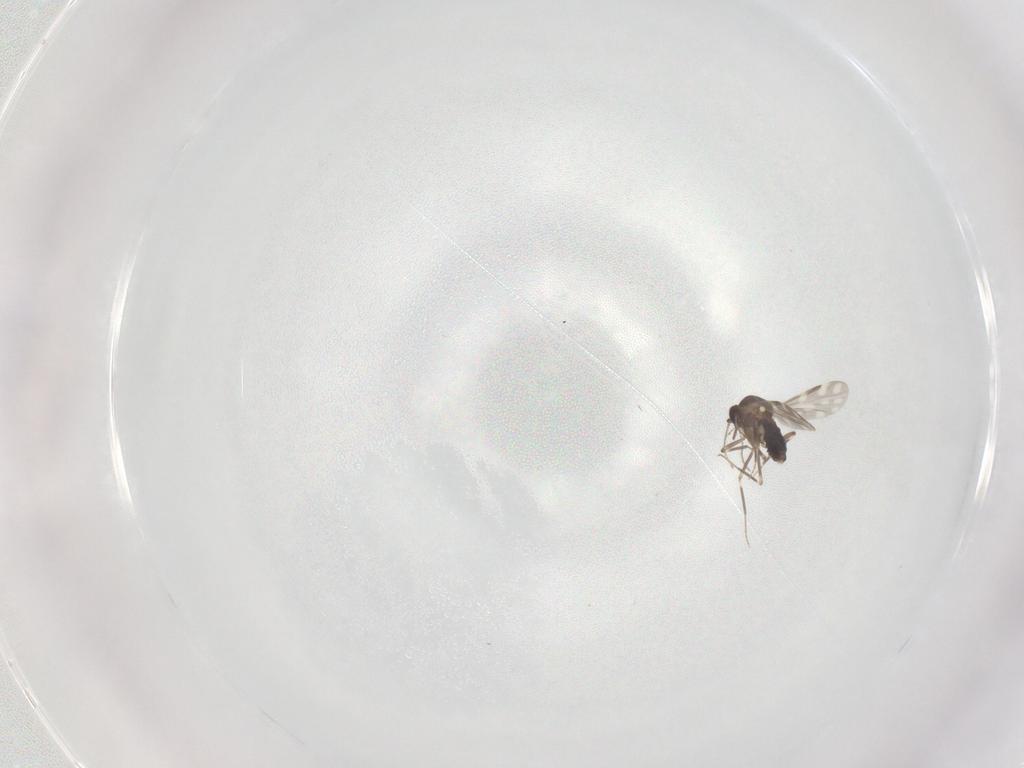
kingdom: Animalia
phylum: Arthropoda
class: Insecta
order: Diptera
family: Ceratopogonidae
